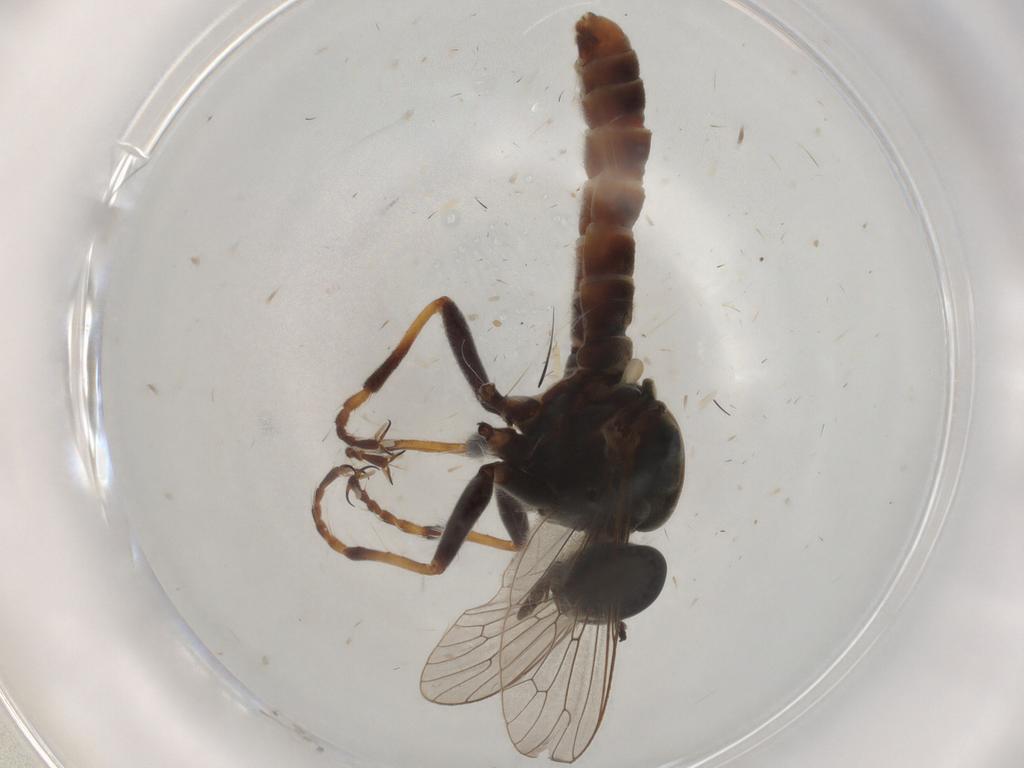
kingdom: Animalia
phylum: Arthropoda
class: Insecta
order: Diptera
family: Asilidae
